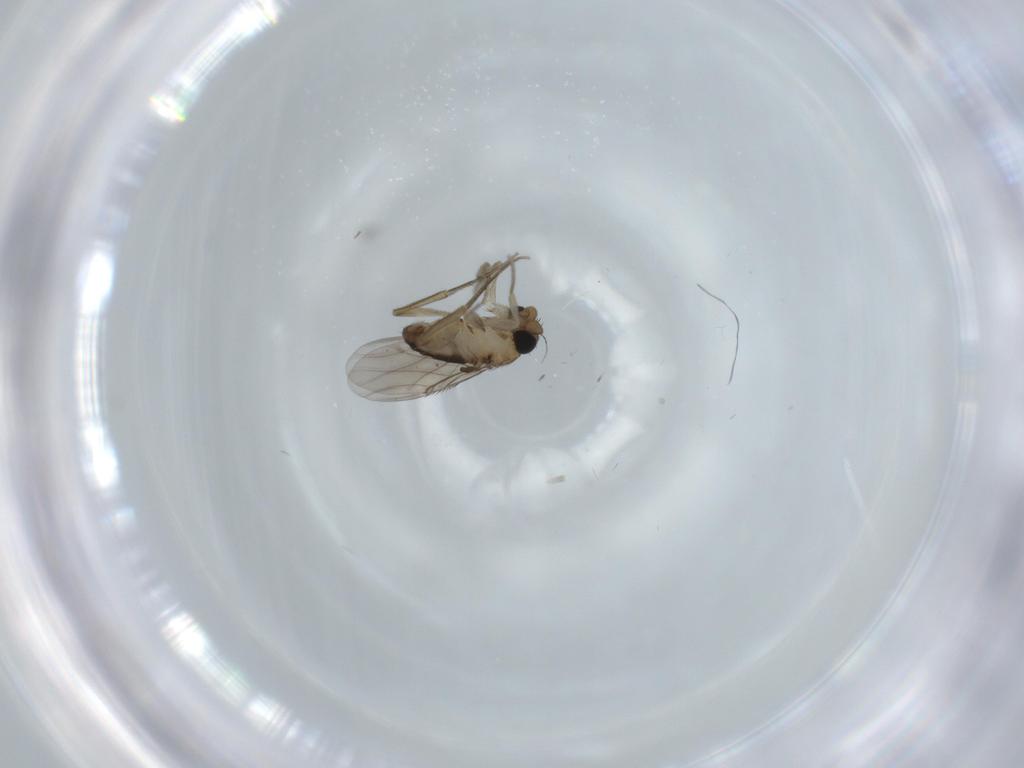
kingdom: Animalia
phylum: Arthropoda
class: Insecta
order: Diptera
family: Phoridae
